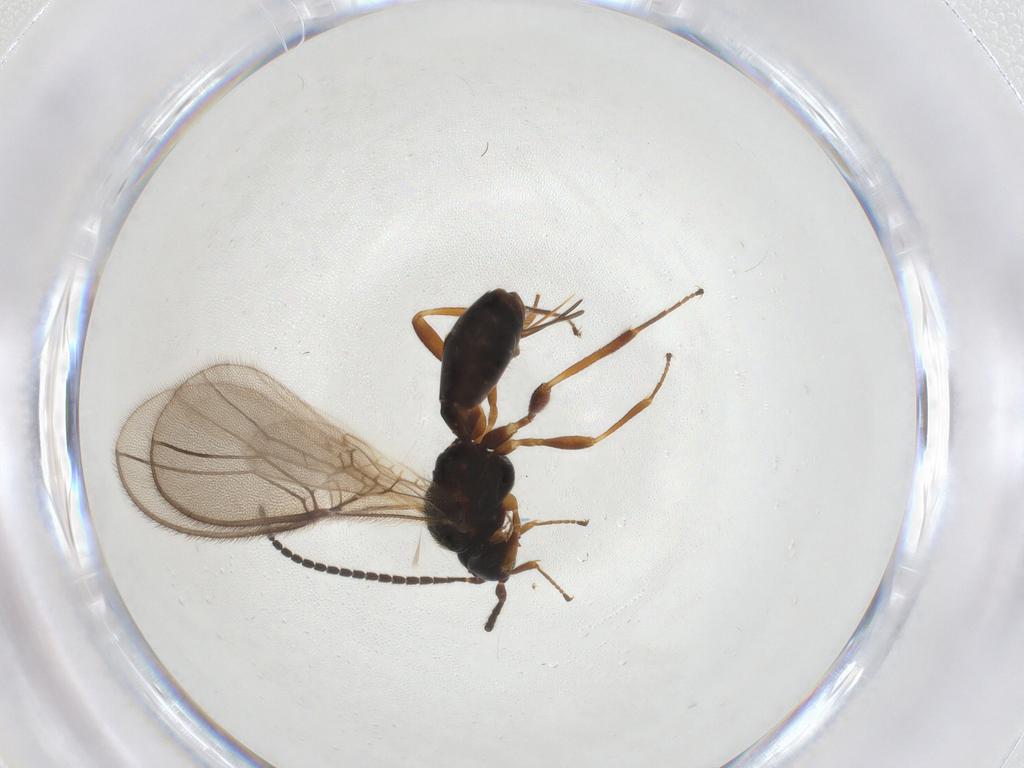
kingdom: Animalia
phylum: Arthropoda
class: Insecta
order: Hymenoptera
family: Braconidae
